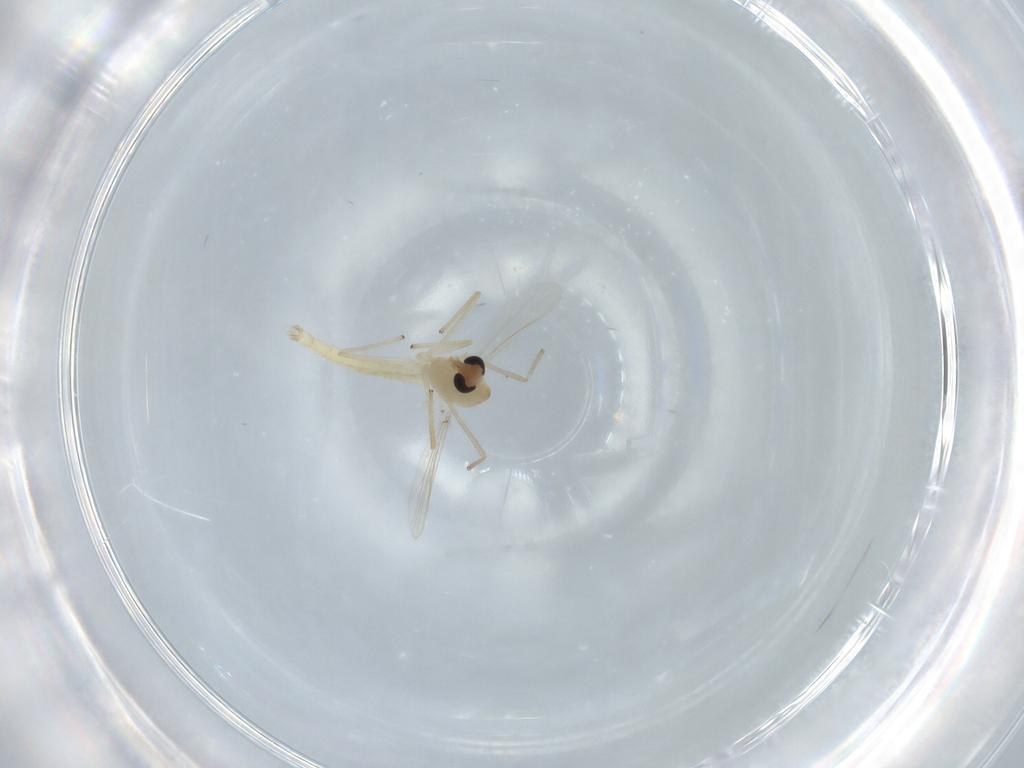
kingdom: Animalia
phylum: Arthropoda
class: Insecta
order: Diptera
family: Chironomidae
